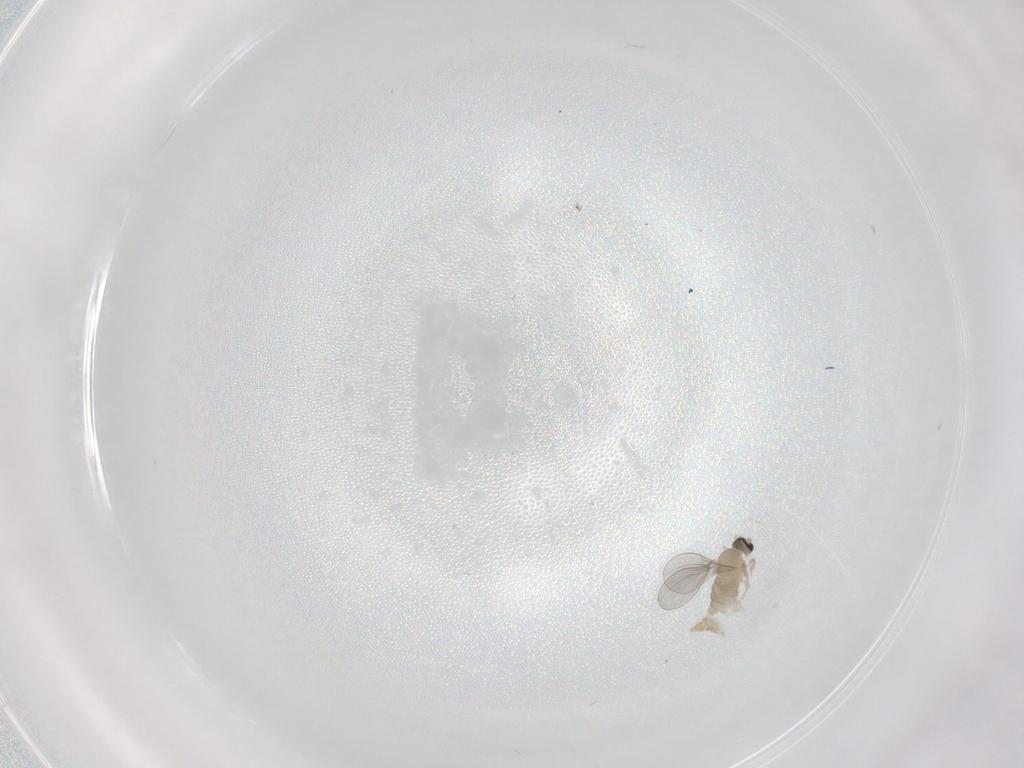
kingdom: Animalia
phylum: Arthropoda
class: Insecta
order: Diptera
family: Cecidomyiidae
